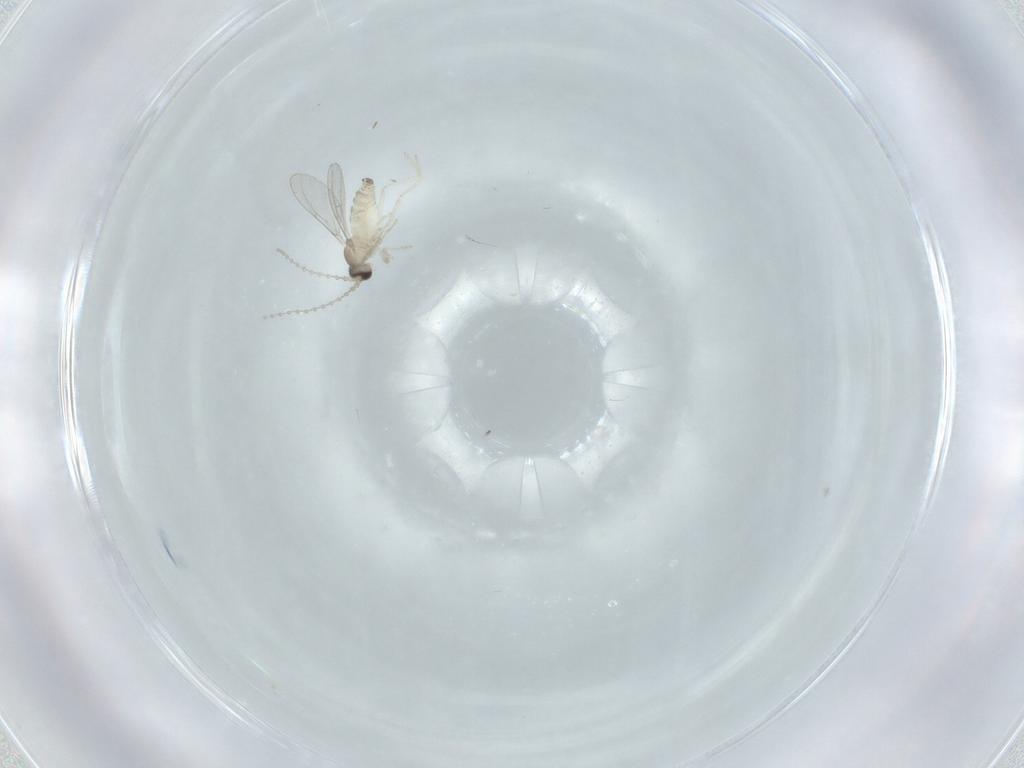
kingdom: Animalia
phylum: Arthropoda
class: Insecta
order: Diptera
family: Cecidomyiidae
